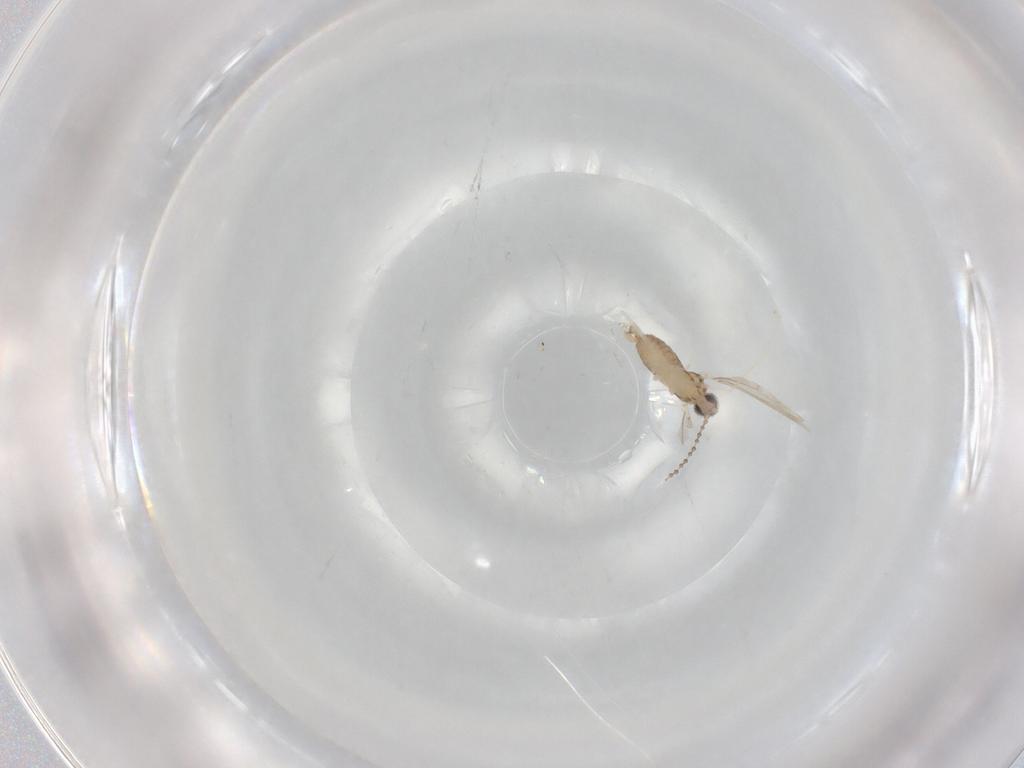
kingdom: Animalia
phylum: Arthropoda
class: Insecta
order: Diptera
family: Cecidomyiidae
